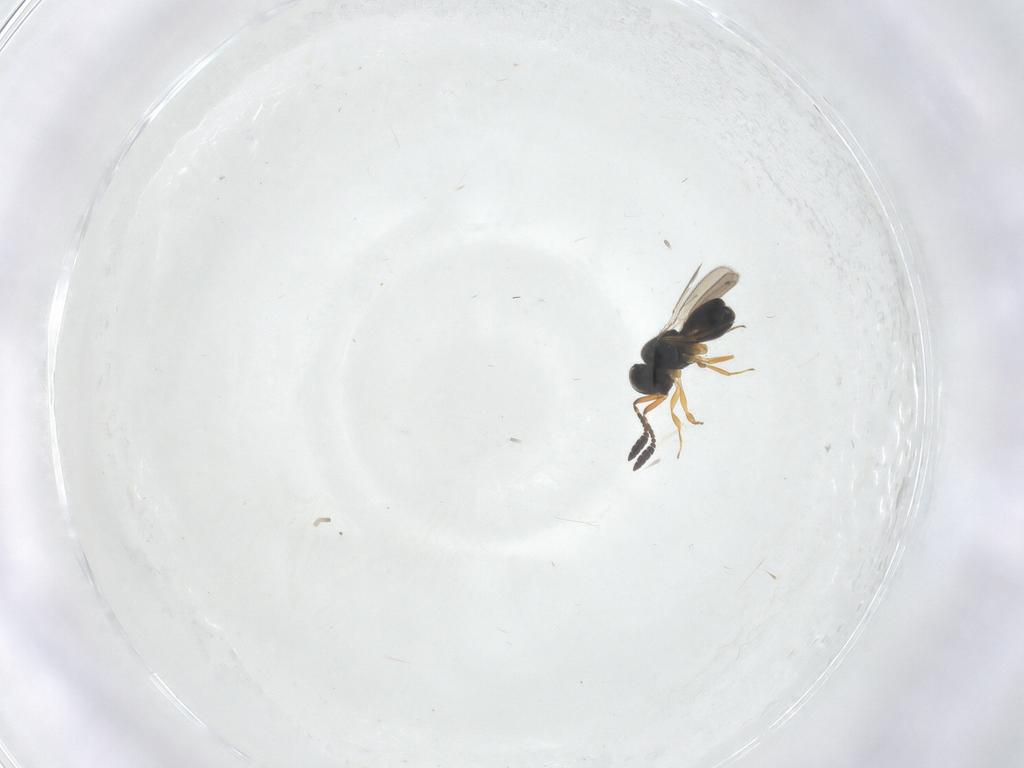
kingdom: Animalia
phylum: Arthropoda
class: Insecta
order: Hymenoptera
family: Scelionidae
